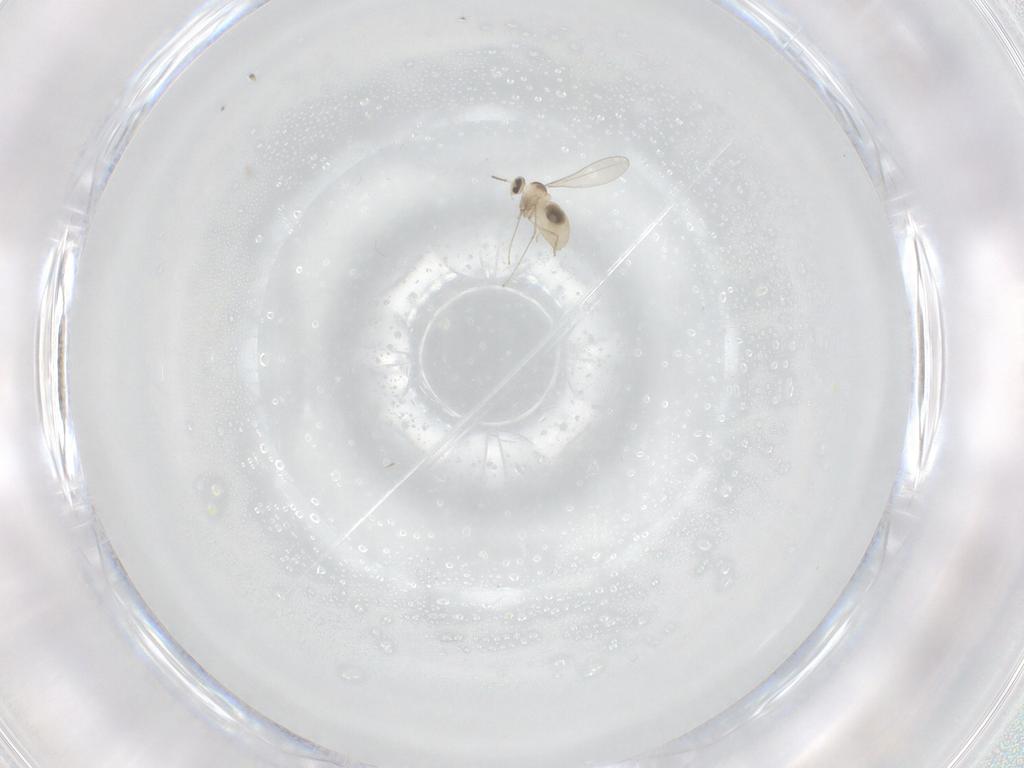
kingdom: Animalia
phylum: Arthropoda
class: Insecta
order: Diptera
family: Cecidomyiidae
